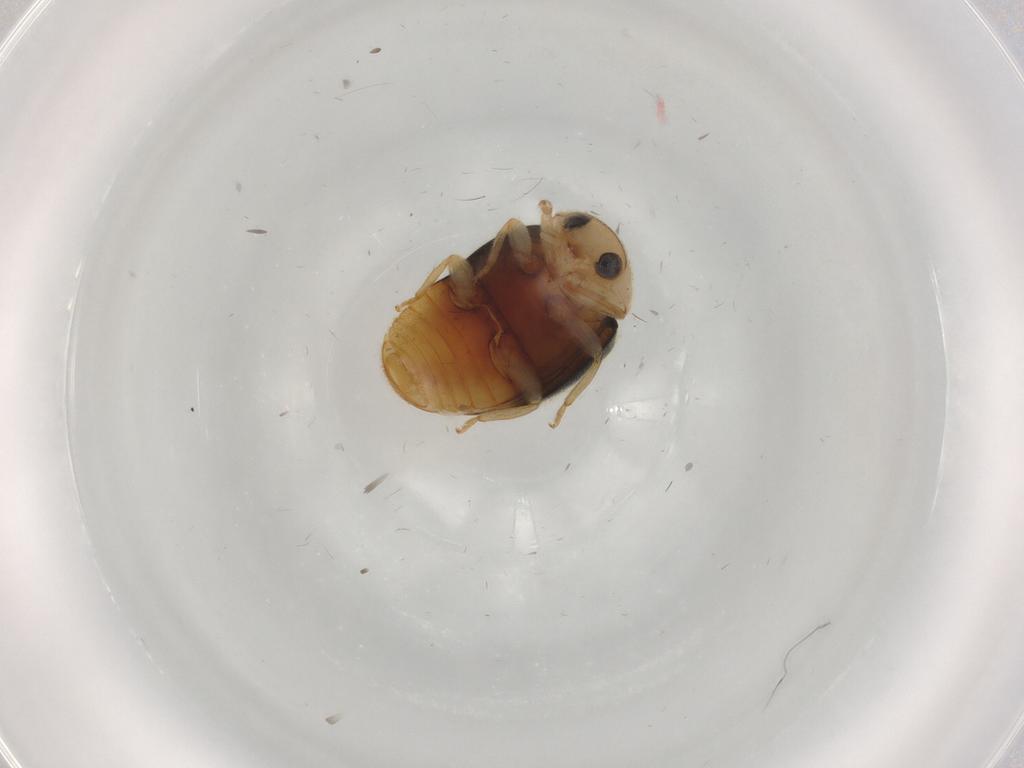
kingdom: Animalia
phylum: Arthropoda
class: Insecta
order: Coleoptera
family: Coccinellidae
